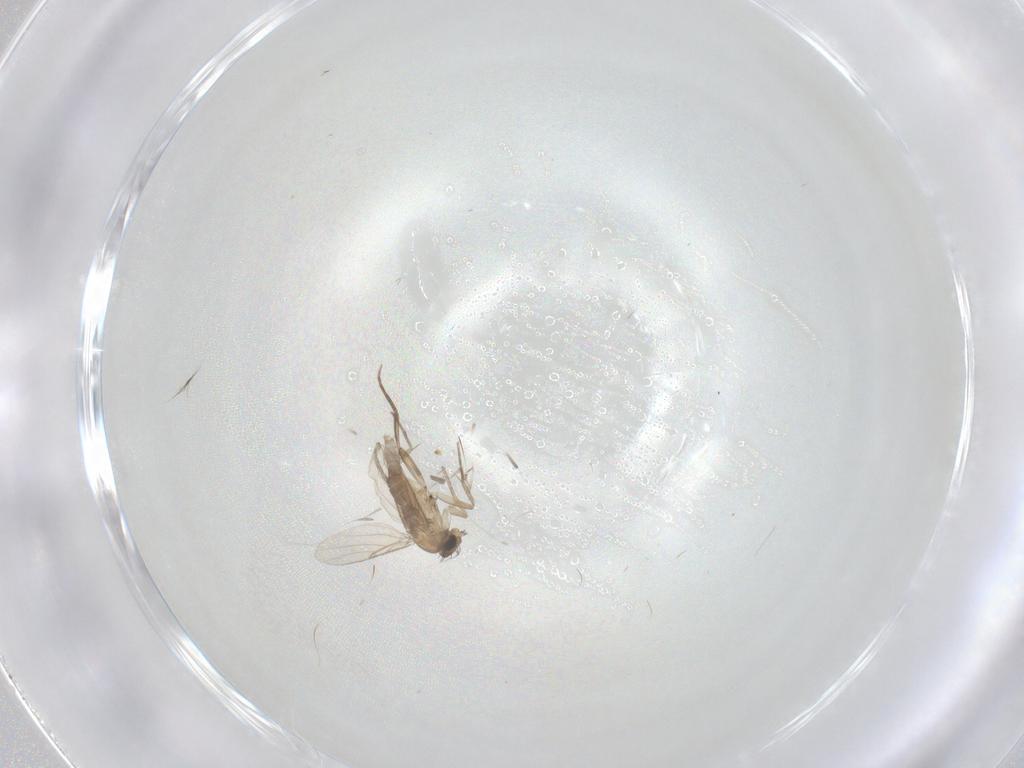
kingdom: Animalia
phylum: Arthropoda
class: Insecta
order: Diptera
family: Phoridae
